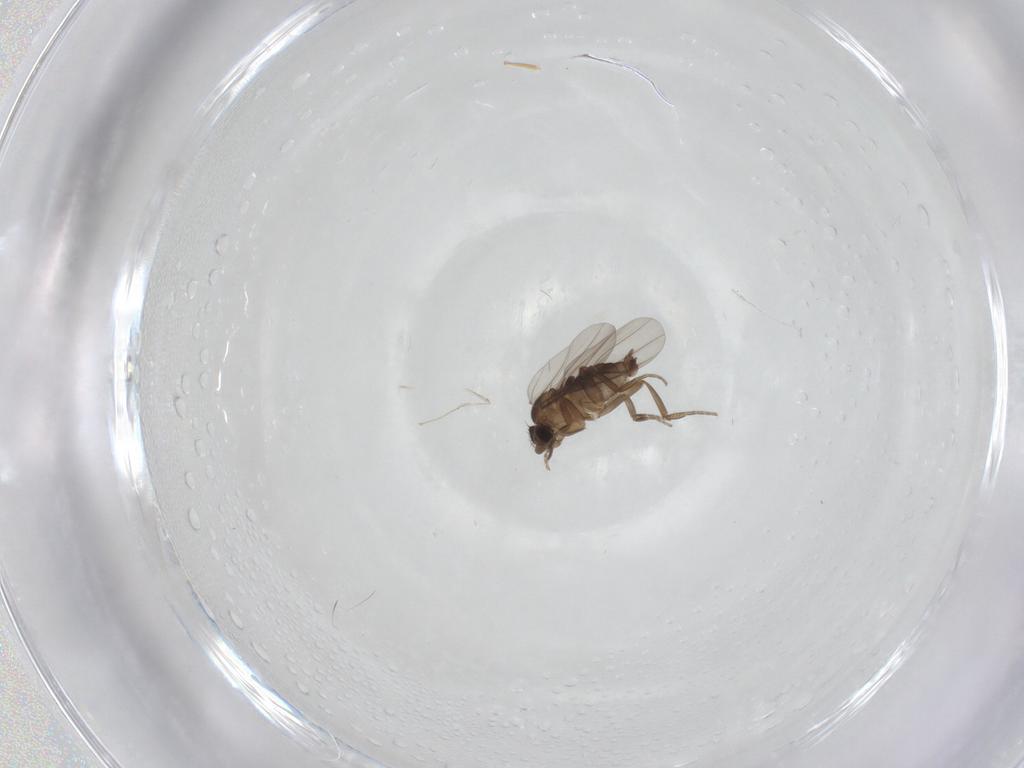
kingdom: Animalia
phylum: Arthropoda
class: Insecta
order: Diptera
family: Phoridae
